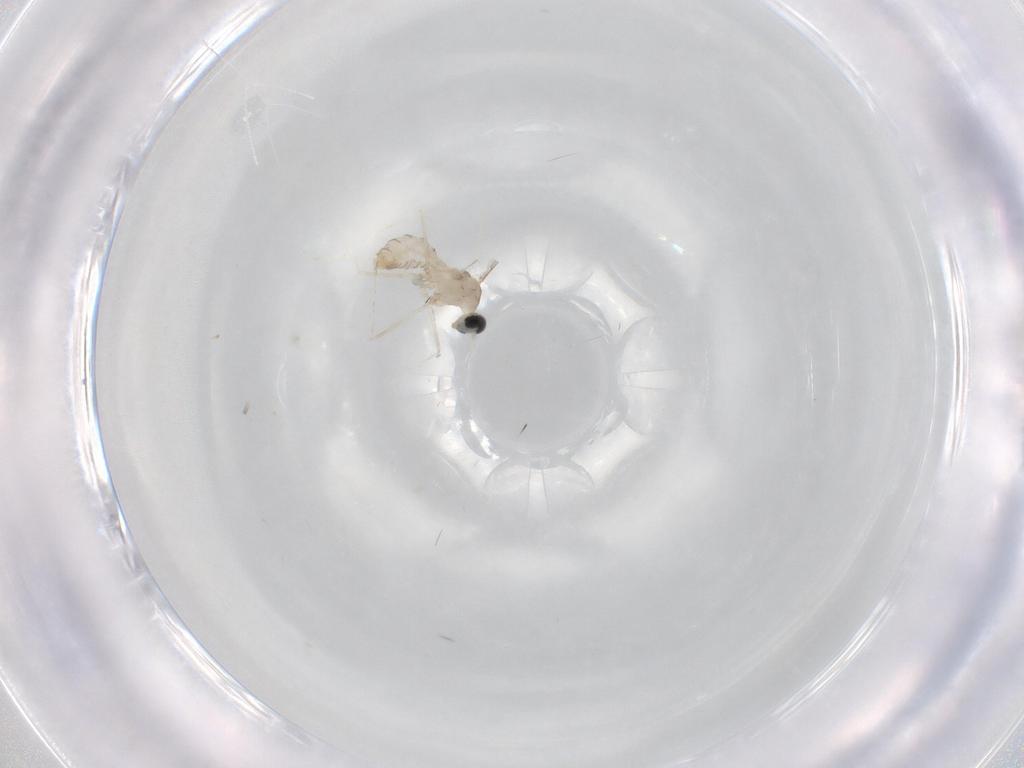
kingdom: Animalia
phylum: Arthropoda
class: Insecta
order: Diptera
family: Cecidomyiidae
